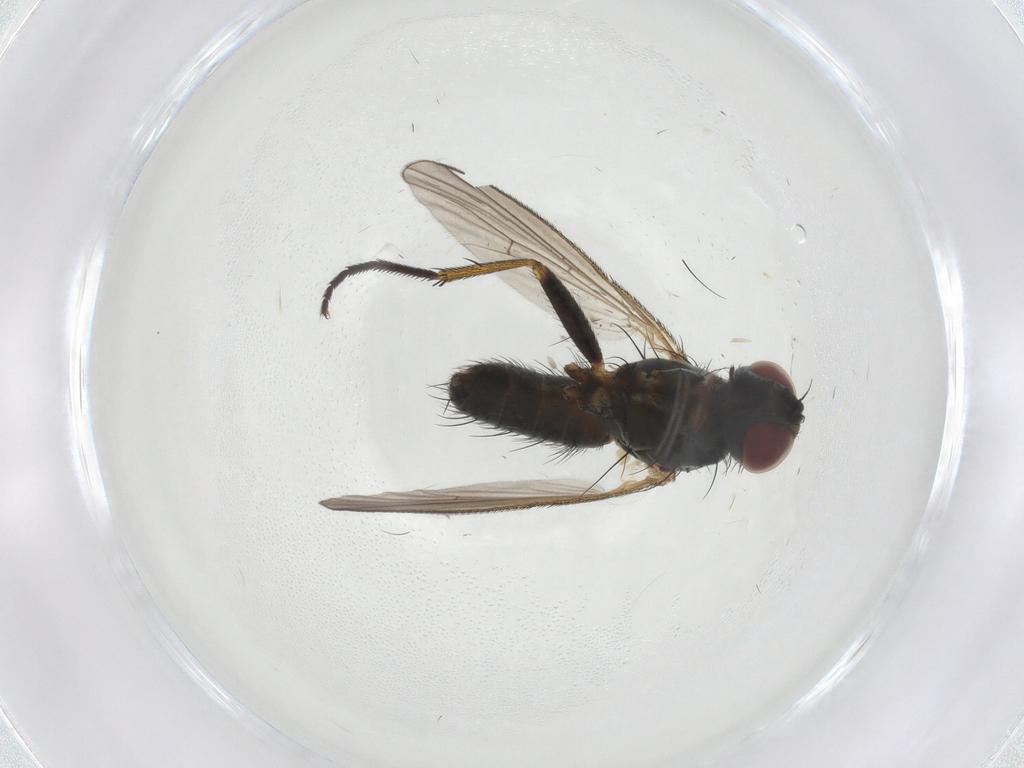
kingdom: Animalia
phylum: Arthropoda
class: Insecta
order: Diptera
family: Muscidae
